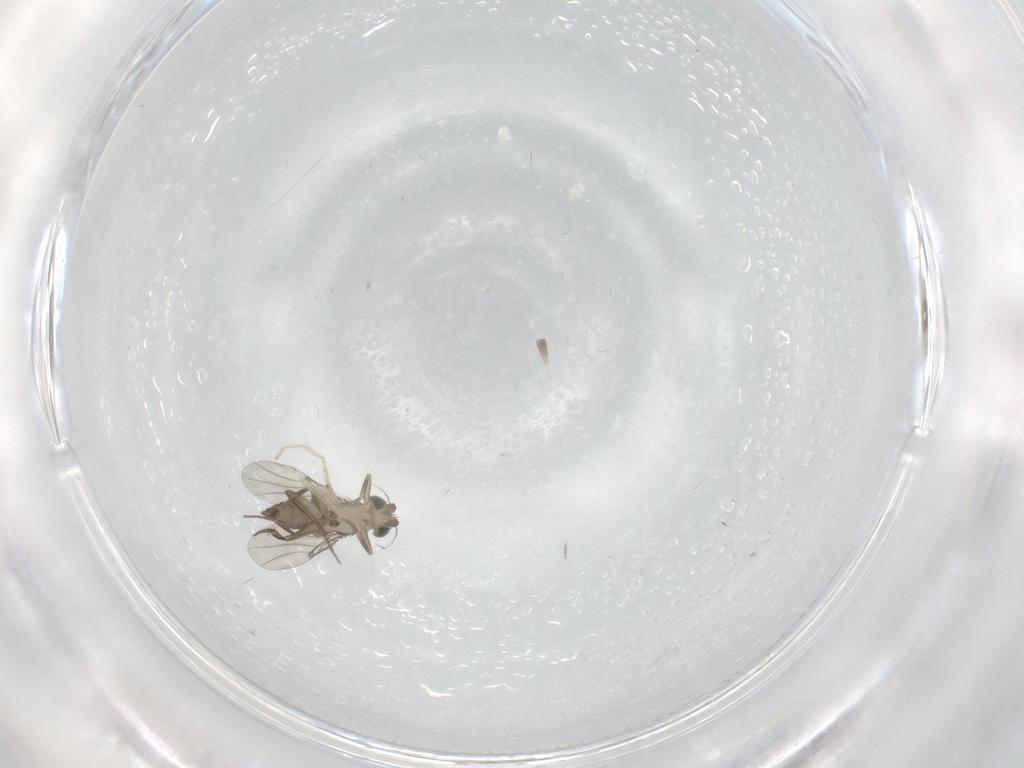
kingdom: Animalia
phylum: Arthropoda
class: Insecta
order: Diptera
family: Phoridae
